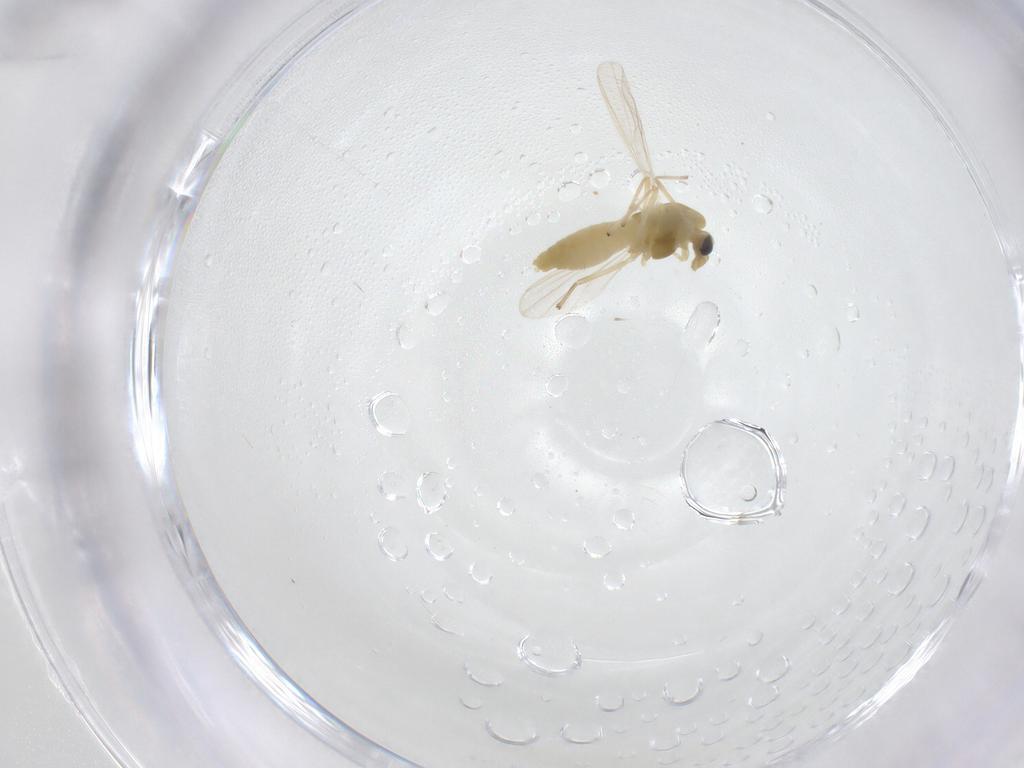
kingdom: Animalia
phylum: Arthropoda
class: Insecta
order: Diptera
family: Chironomidae
